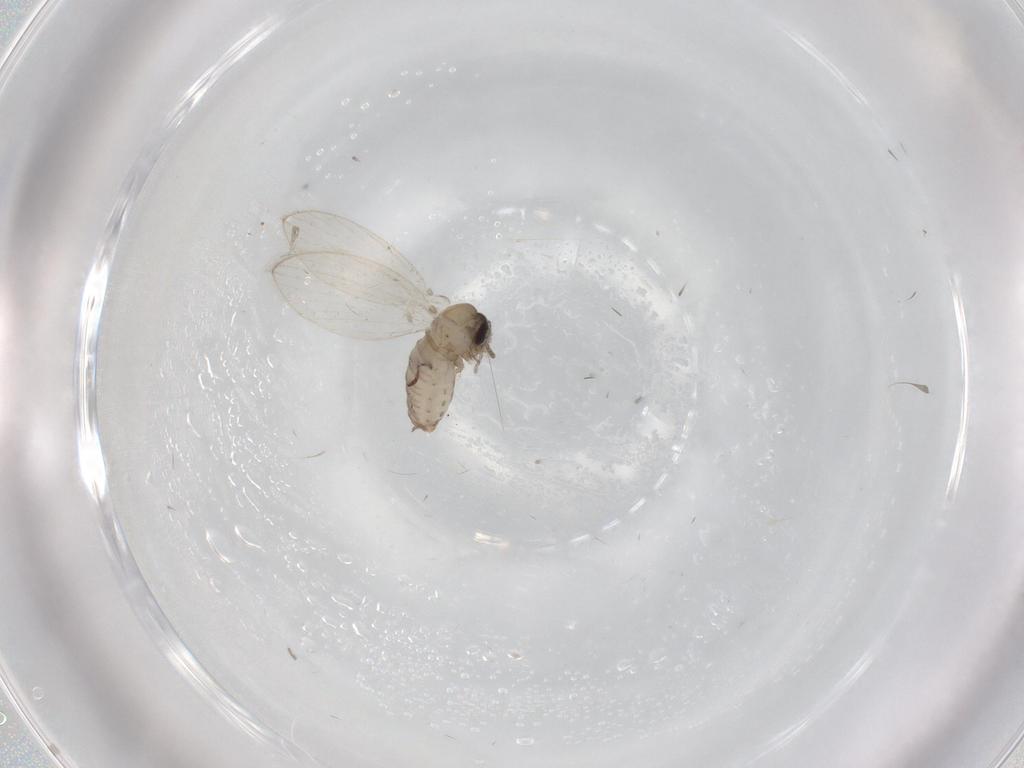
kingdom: Animalia
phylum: Arthropoda
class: Insecta
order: Diptera
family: Psychodidae
